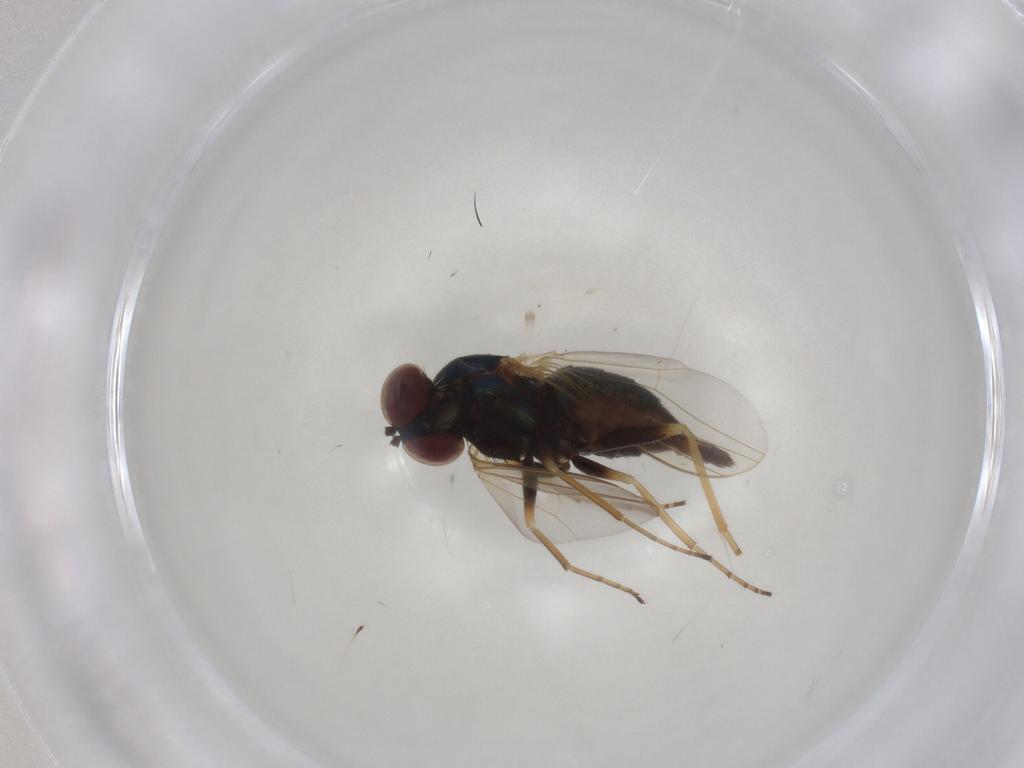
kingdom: Animalia
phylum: Arthropoda
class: Insecta
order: Diptera
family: Dolichopodidae
